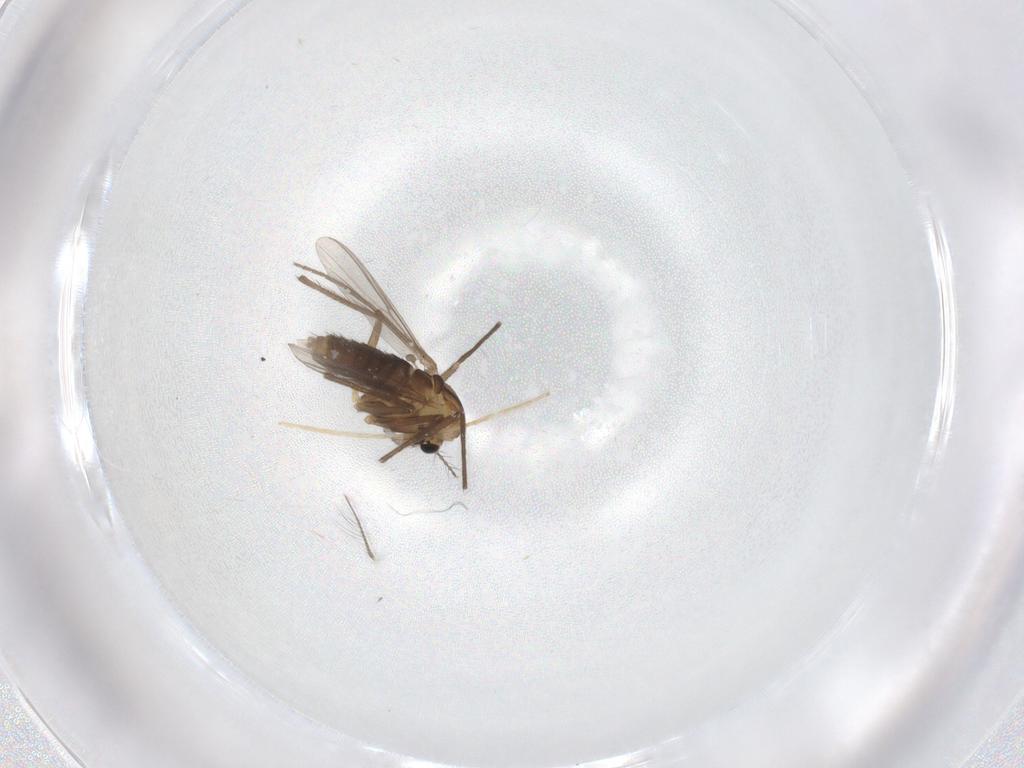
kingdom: Animalia
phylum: Arthropoda
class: Insecta
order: Diptera
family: Chironomidae
